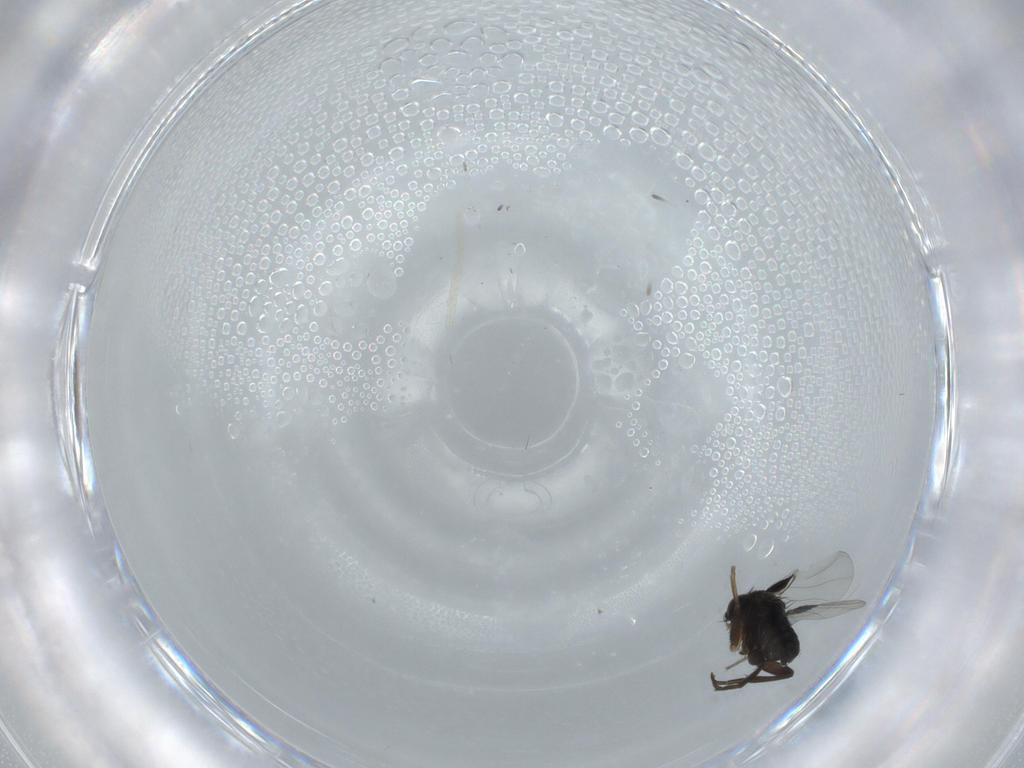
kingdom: Animalia
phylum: Arthropoda
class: Insecta
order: Diptera
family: Phoridae
